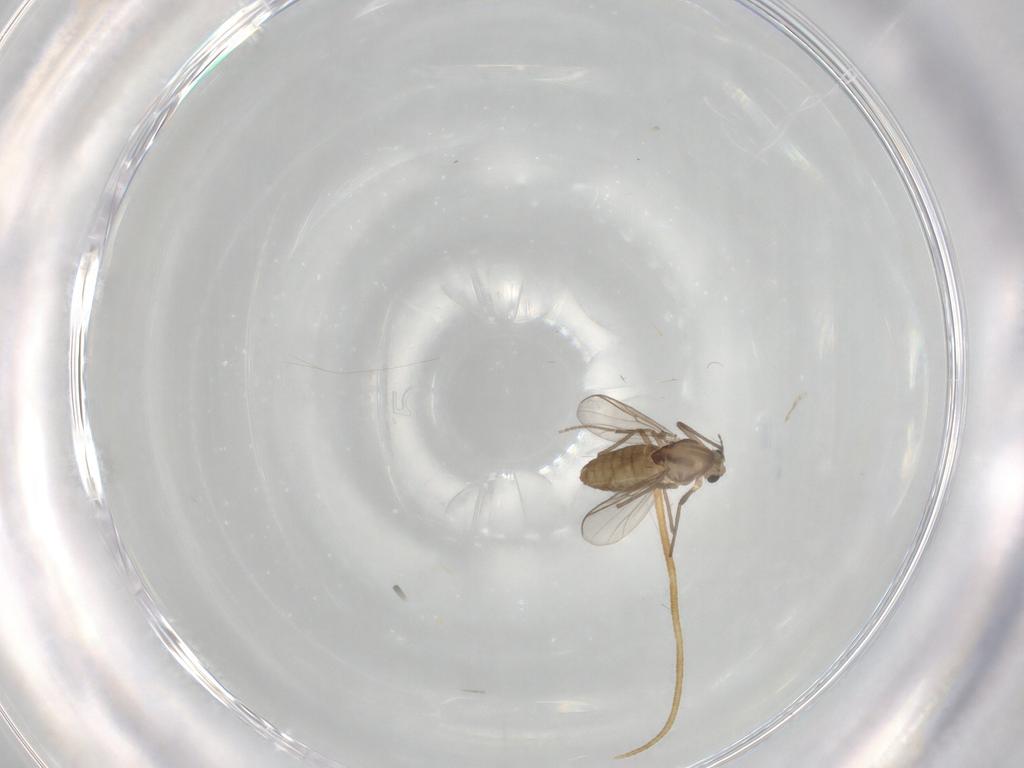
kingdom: Animalia
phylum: Arthropoda
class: Insecta
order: Diptera
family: Chironomidae
